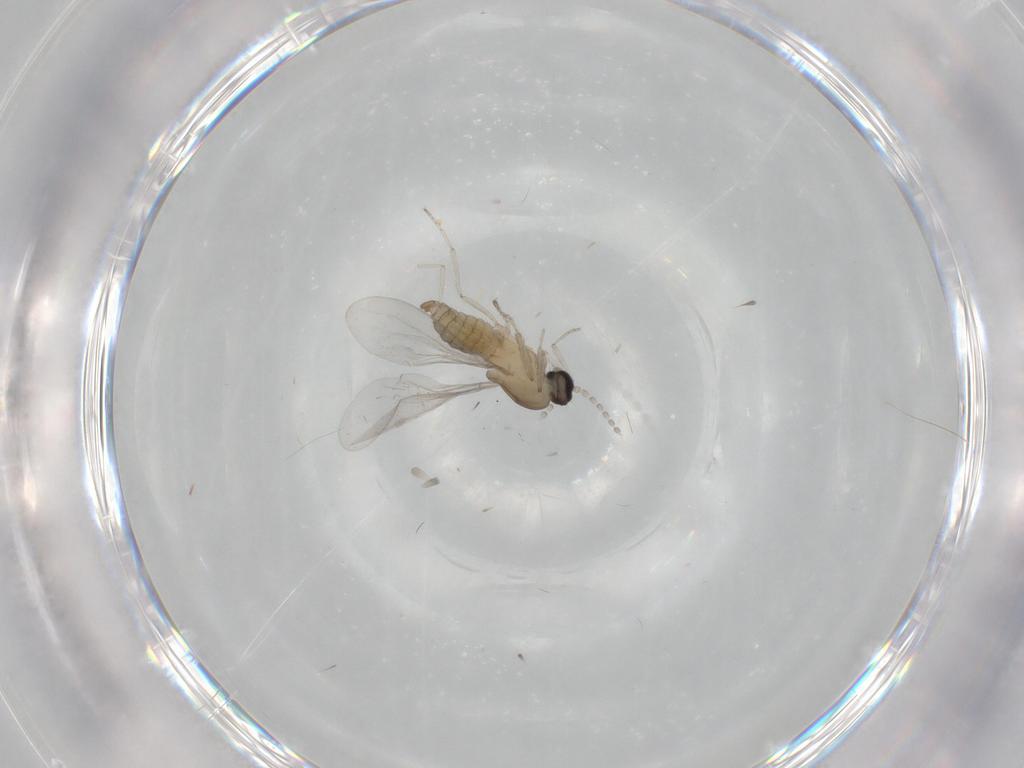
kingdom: Animalia
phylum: Arthropoda
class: Insecta
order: Diptera
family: Cecidomyiidae
